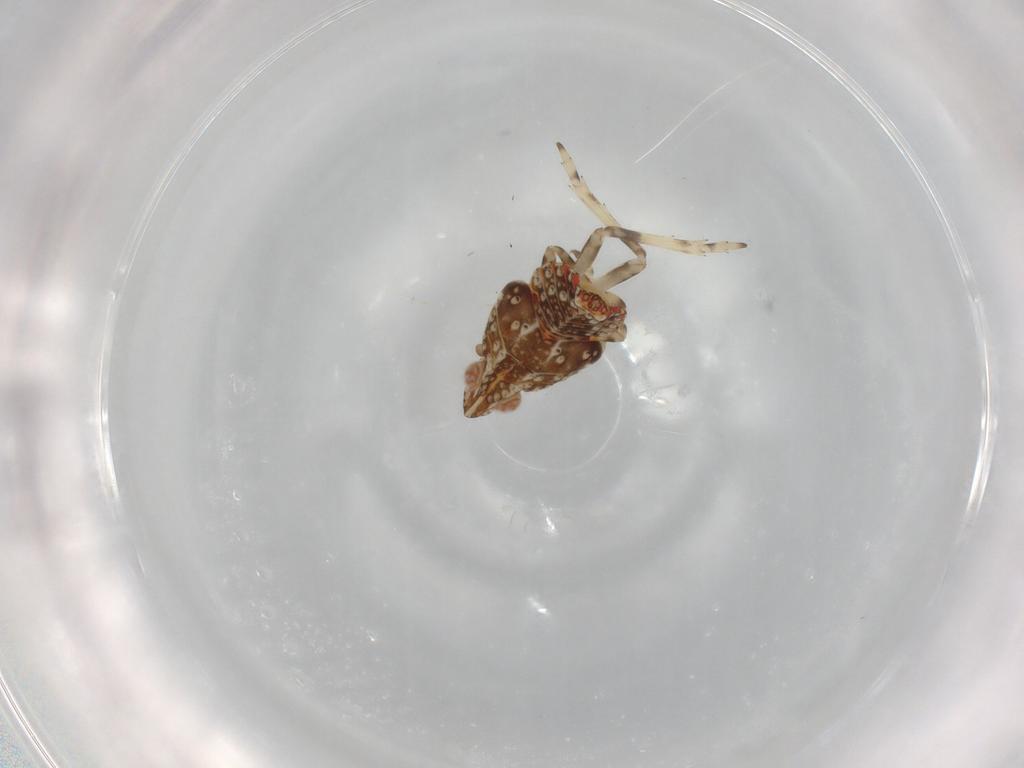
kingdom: Animalia
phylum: Arthropoda
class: Insecta
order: Hemiptera
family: Tropiduchidae
